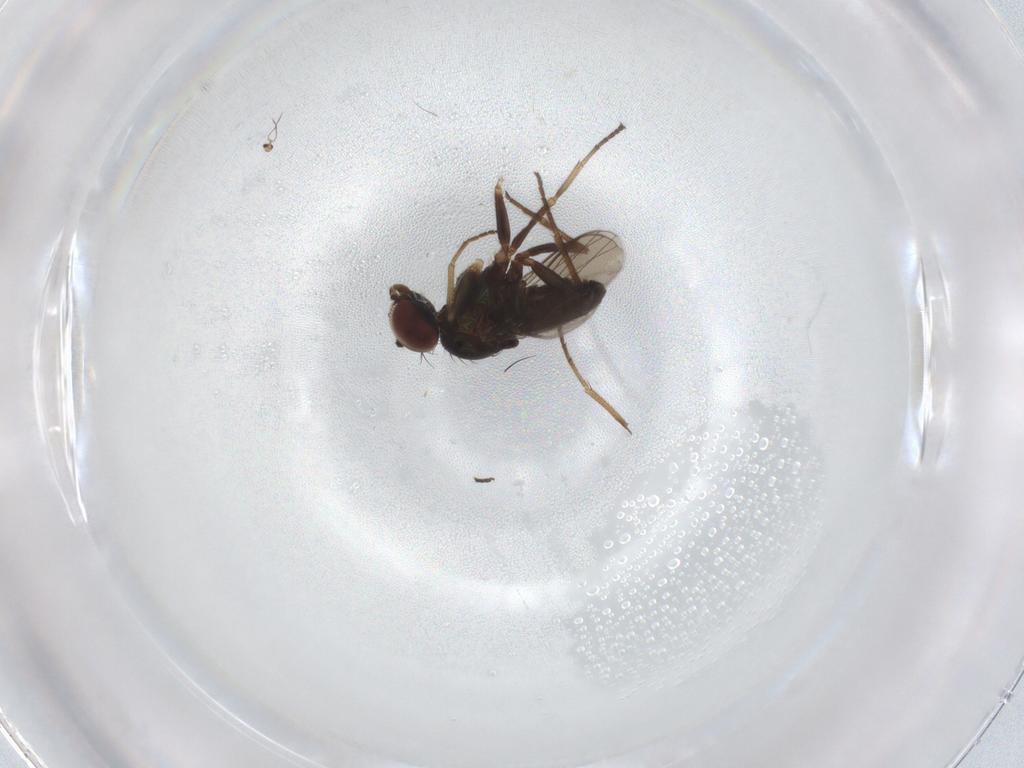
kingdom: Animalia
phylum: Arthropoda
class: Insecta
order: Diptera
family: Dolichopodidae
